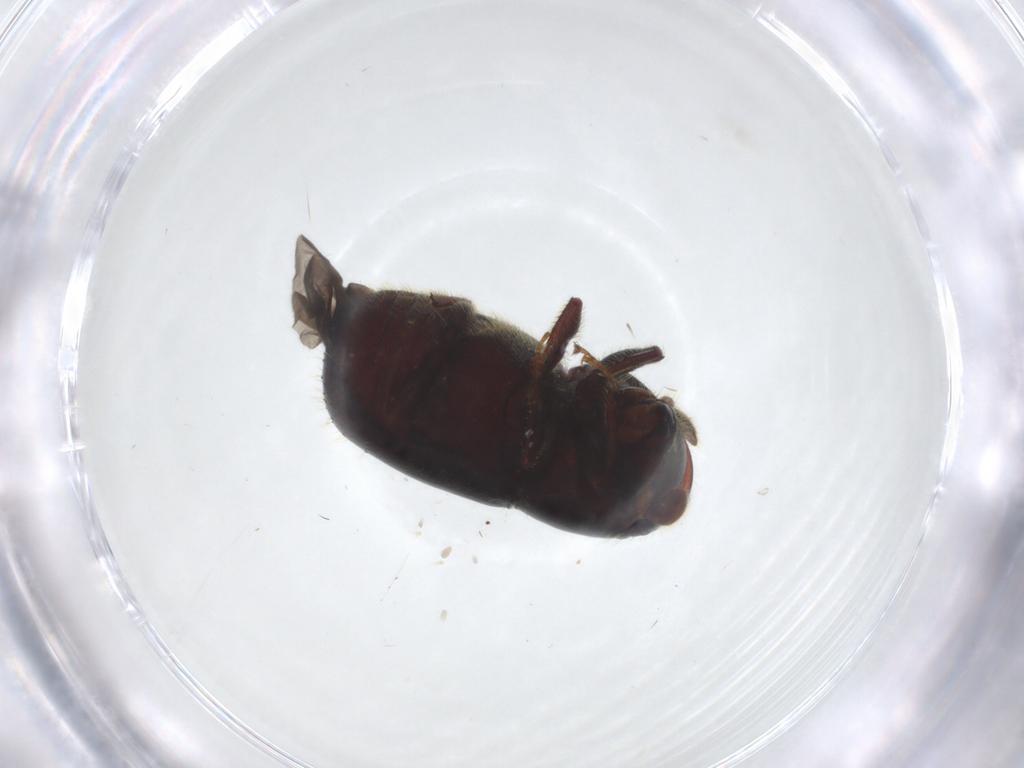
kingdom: Animalia
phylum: Arthropoda
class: Insecta
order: Coleoptera
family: Curculionidae
